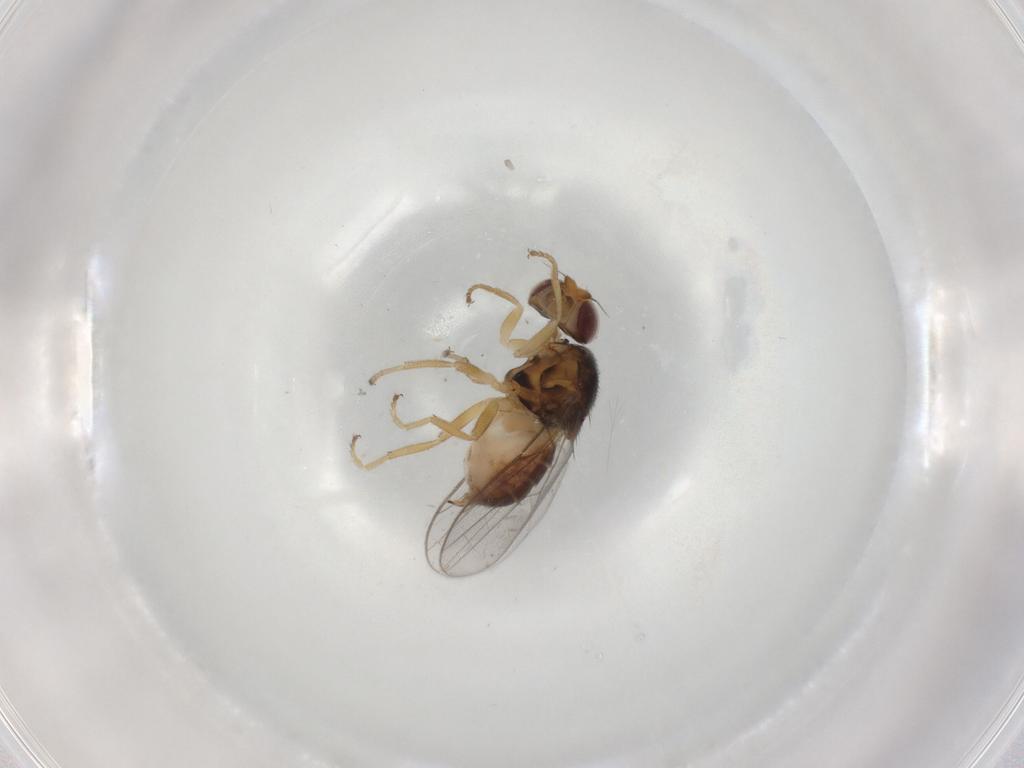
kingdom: Animalia
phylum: Arthropoda
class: Insecta
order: Diptera
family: Chloropidae
